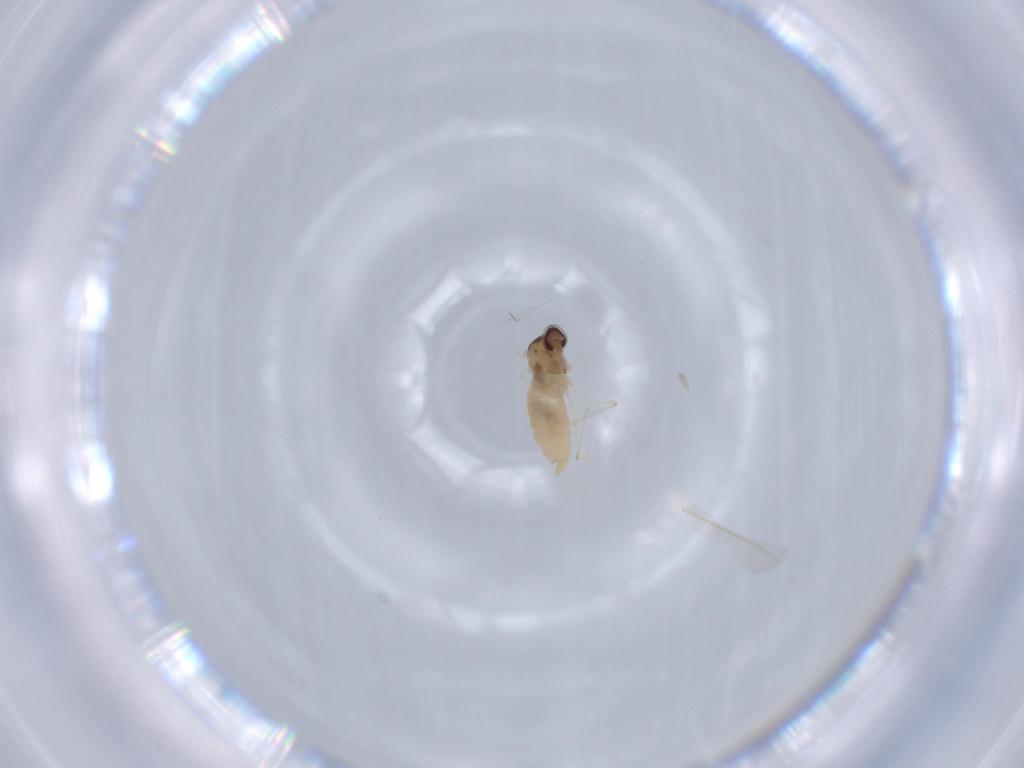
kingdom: Animalia
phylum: Arthropoda
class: Insecta
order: Diptera
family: Cecidomyiidae
